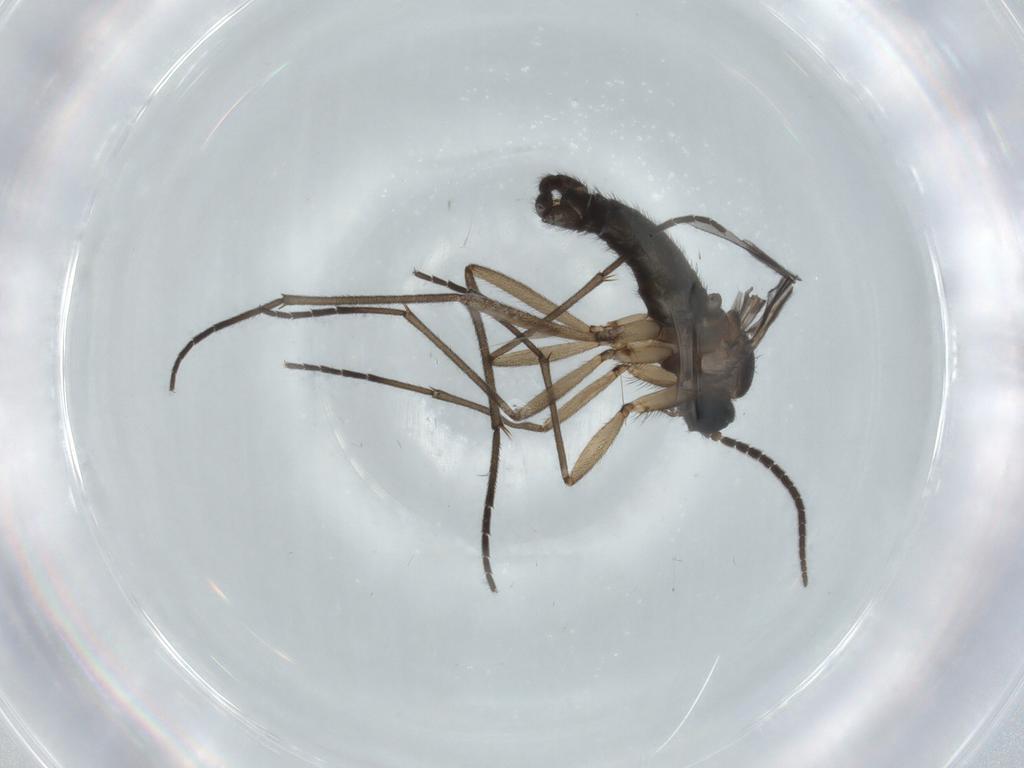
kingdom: Animalia
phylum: Arthropoda
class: Insecta
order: Diptera
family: Sciaridae
